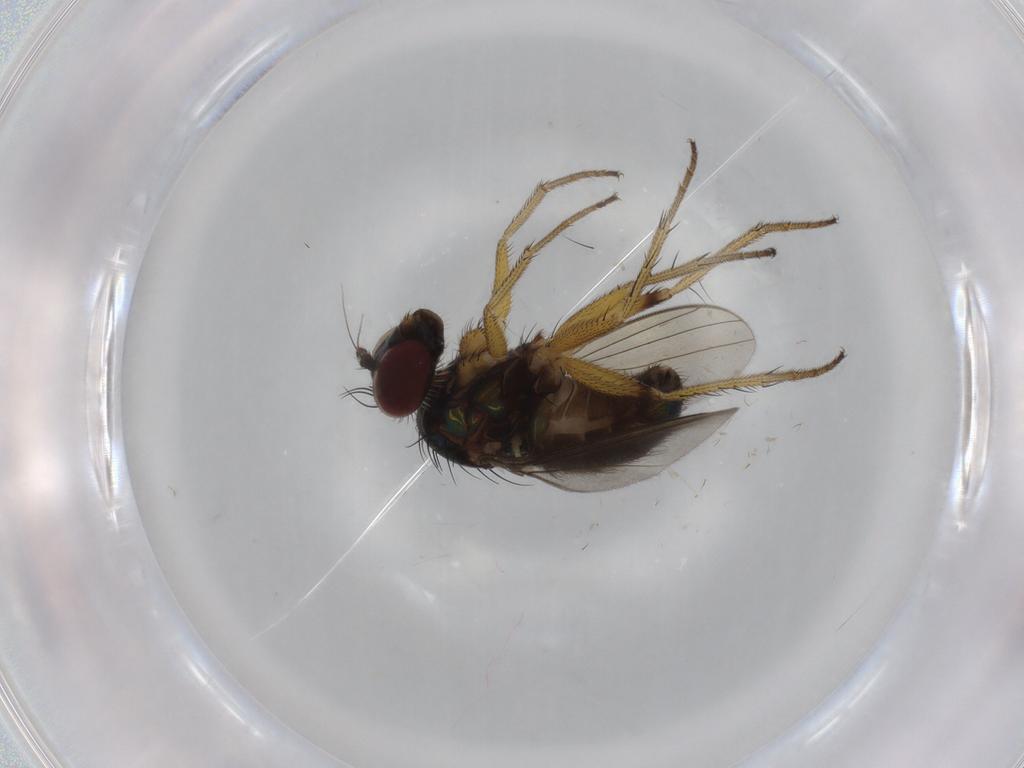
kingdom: Animalia
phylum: Arthropoda
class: Insecta
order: Diptera
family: Dolichopodidae
